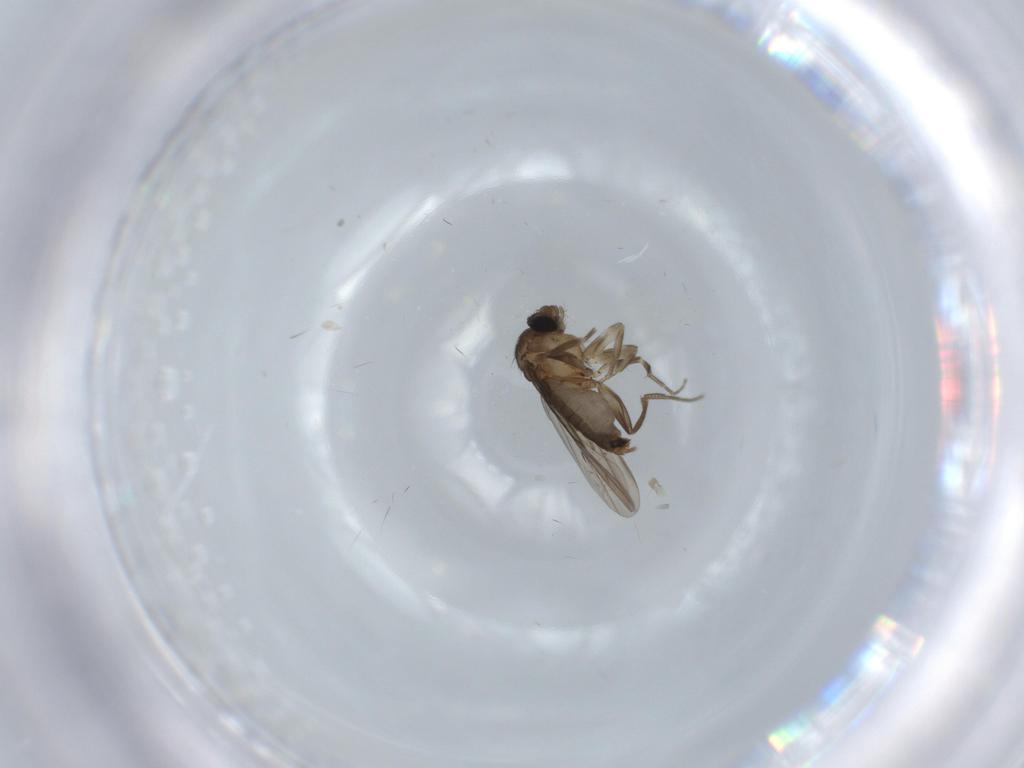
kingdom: Animalia
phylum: Arthropoda
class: Insecta
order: Diptera
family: Phoridae
